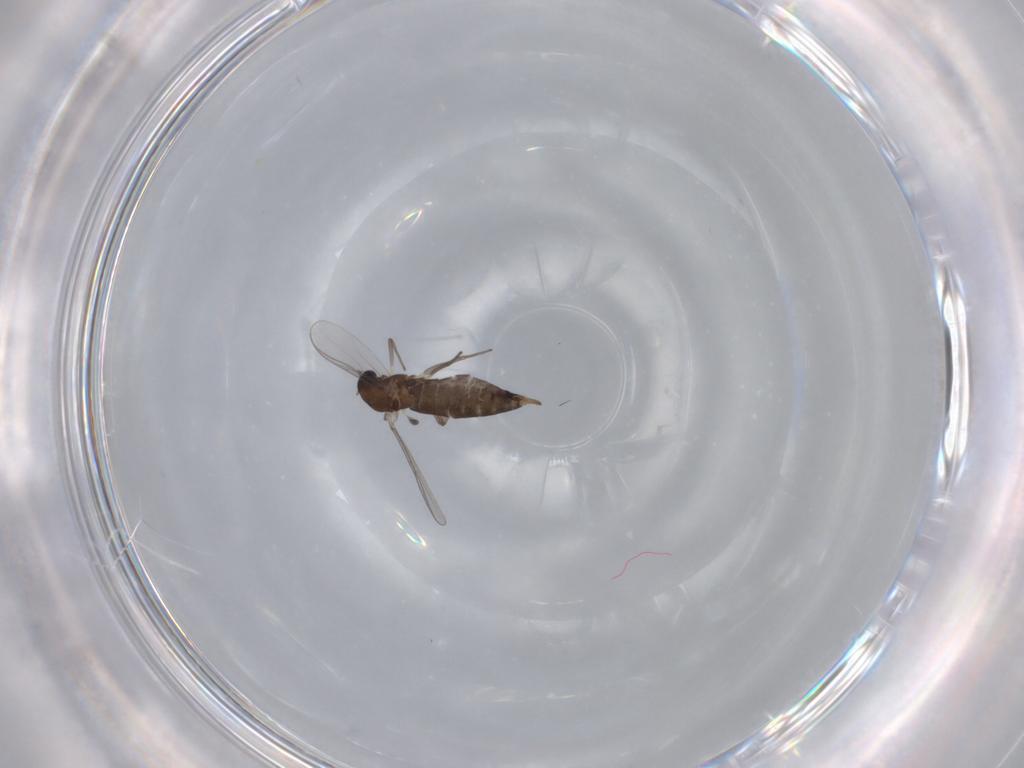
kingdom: Animalia
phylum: Arthropoda
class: Insecta
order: Diptera
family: Chironomidae
